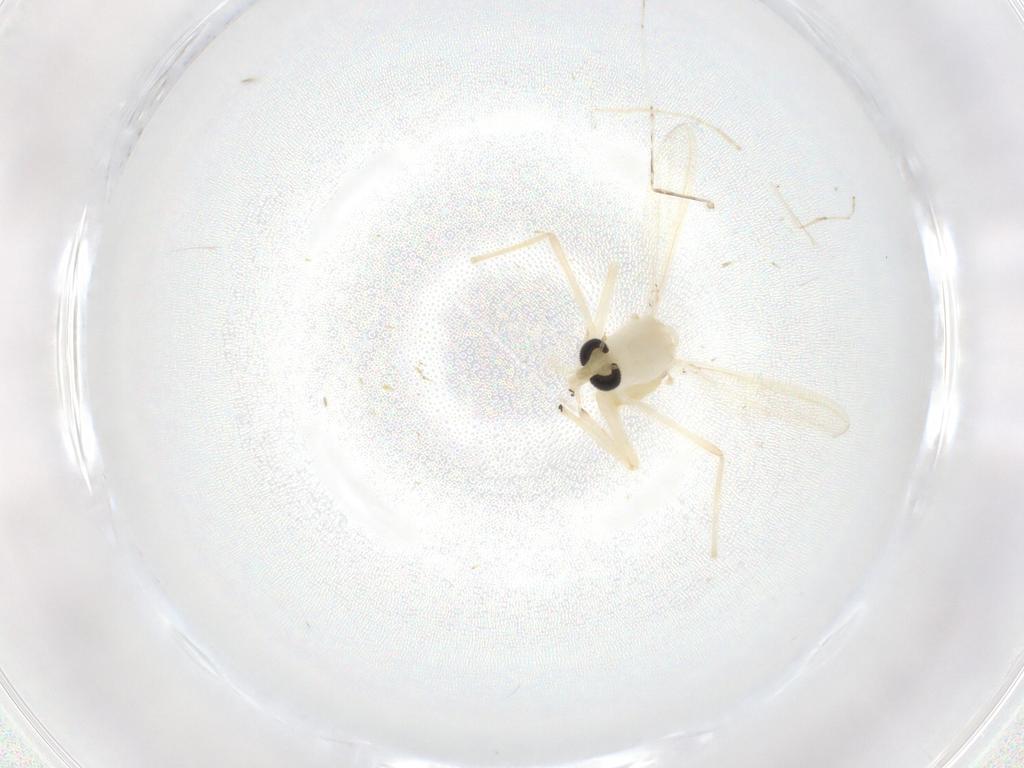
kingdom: Animalia
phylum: Arthropoda
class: Insecta
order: Diptera
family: Chironomidae
